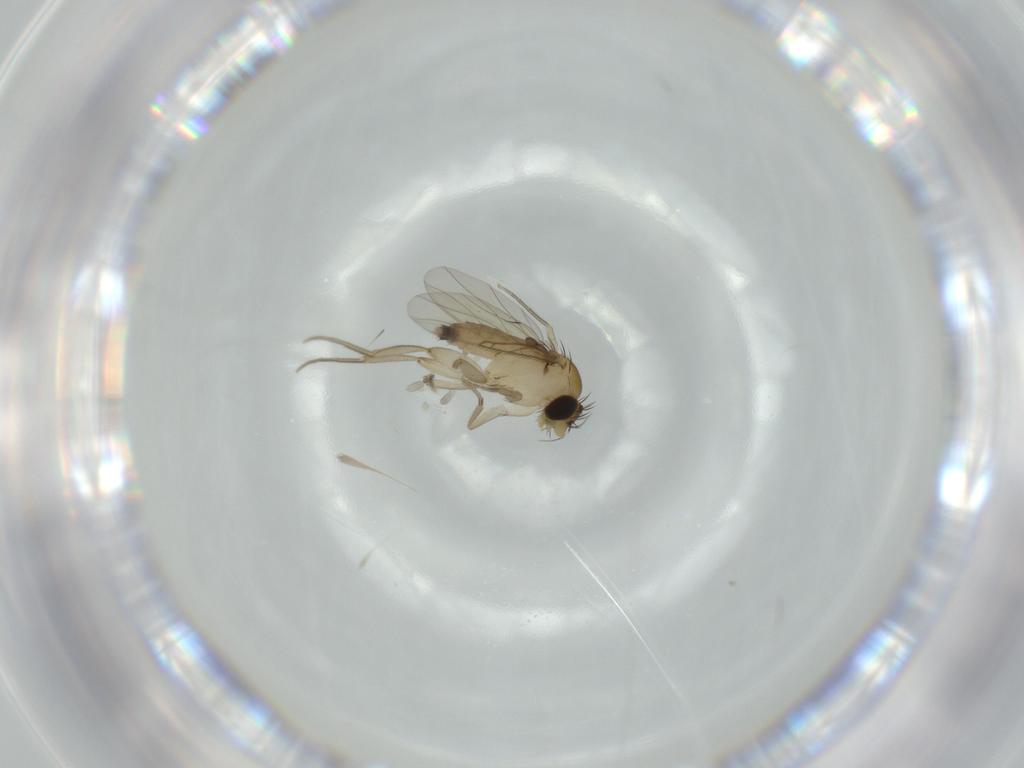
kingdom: Animalia
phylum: Arthropoda
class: Insecta
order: Diptera
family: Phoridae
